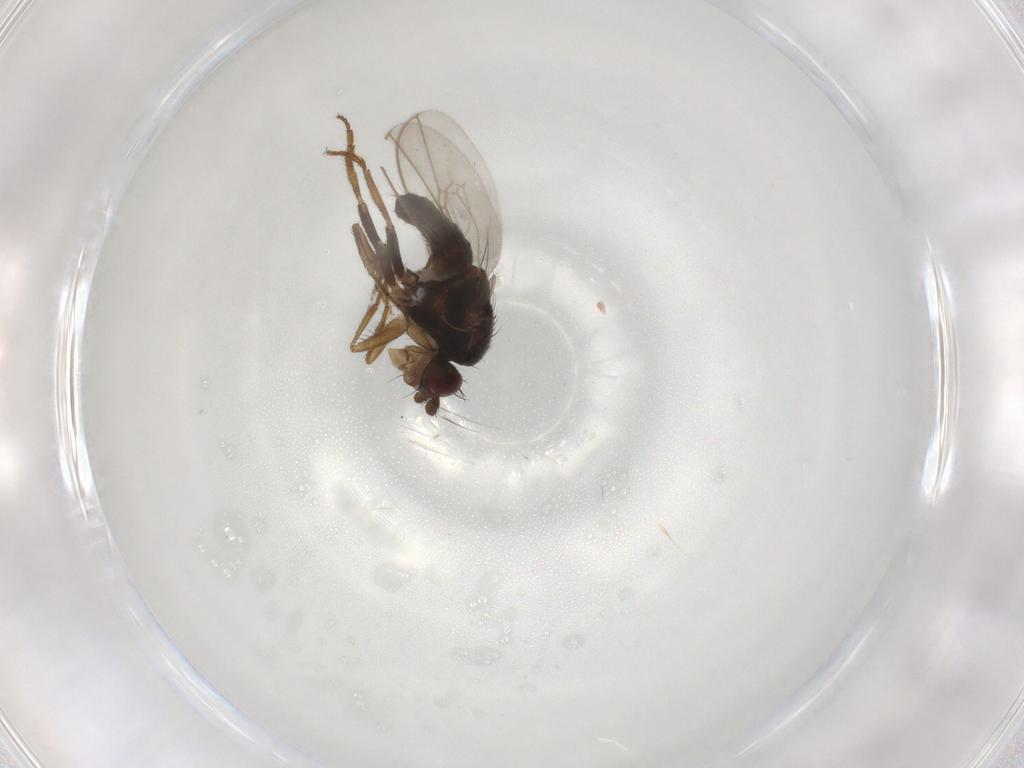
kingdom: Animalia
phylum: Arthropoda
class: Insecta
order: Diptera
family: Sphaeroceridae
